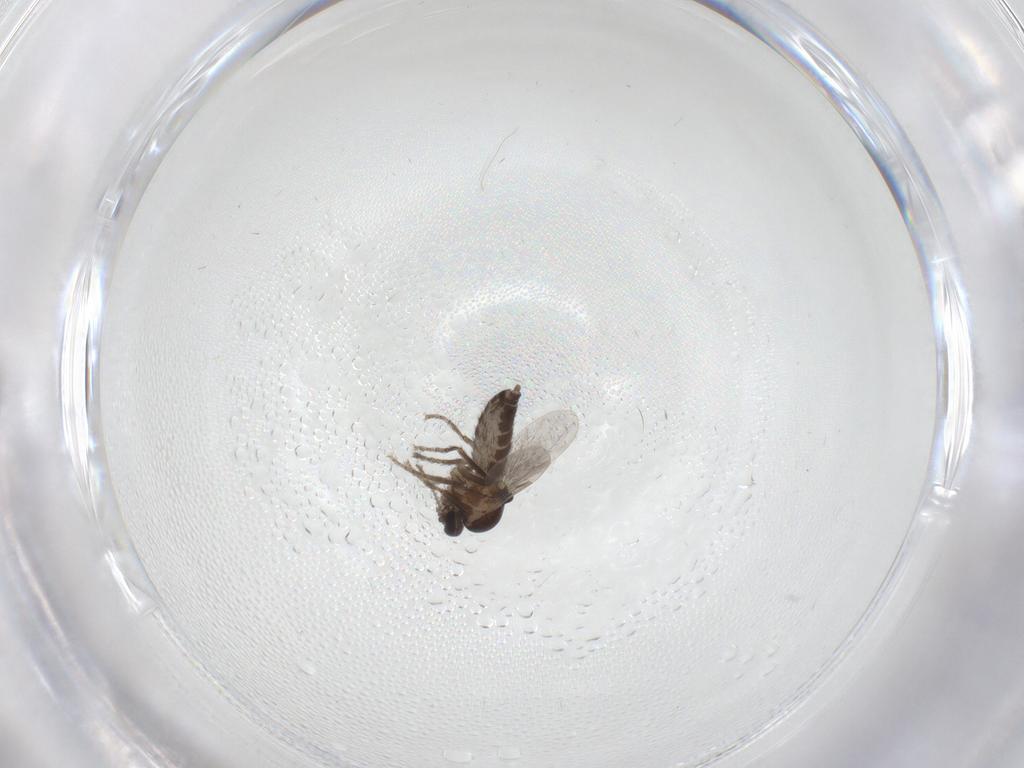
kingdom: Animalia
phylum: Arthropoda
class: Insecta
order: Diptera
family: Ceratopogonidae
